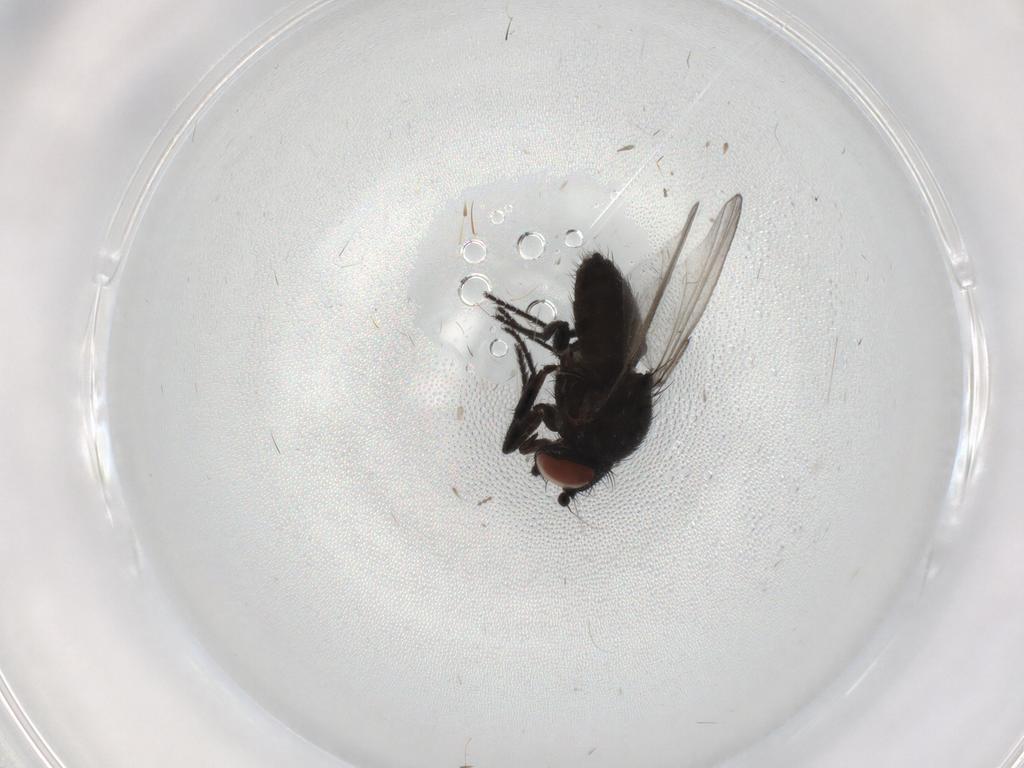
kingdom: Animalia
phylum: Arthropoda
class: Insecta
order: Diptera
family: Milichiidae
